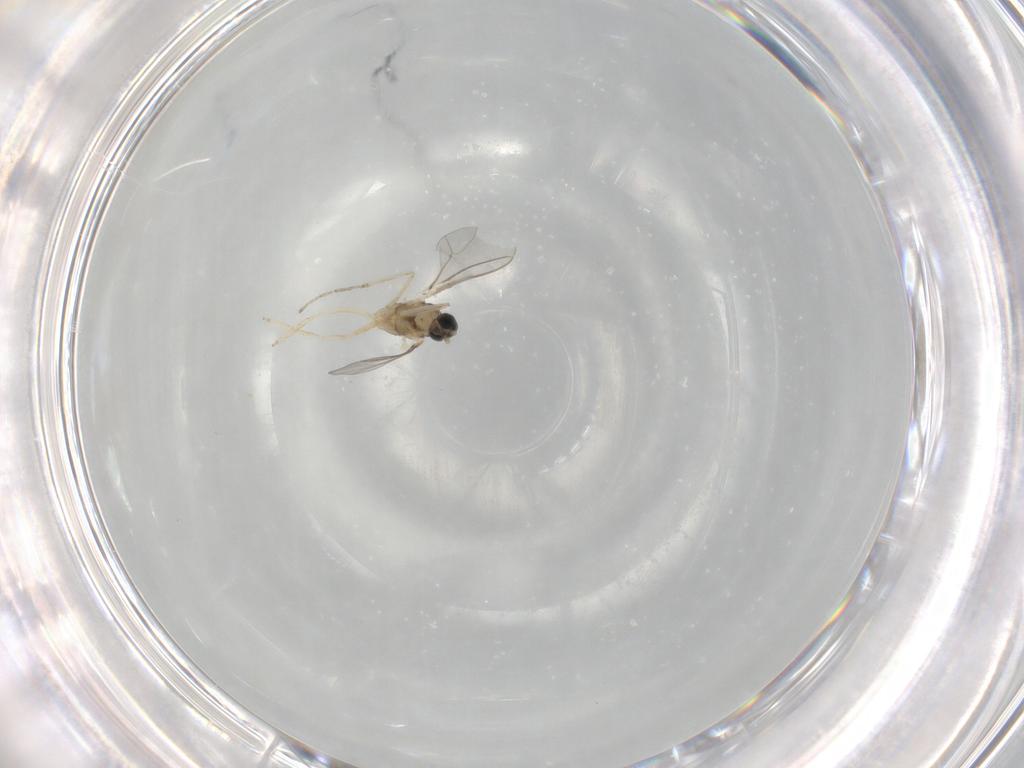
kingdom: Animalia
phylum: Arthropoda
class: Insecta
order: Diptera
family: Cecidomyiidae
